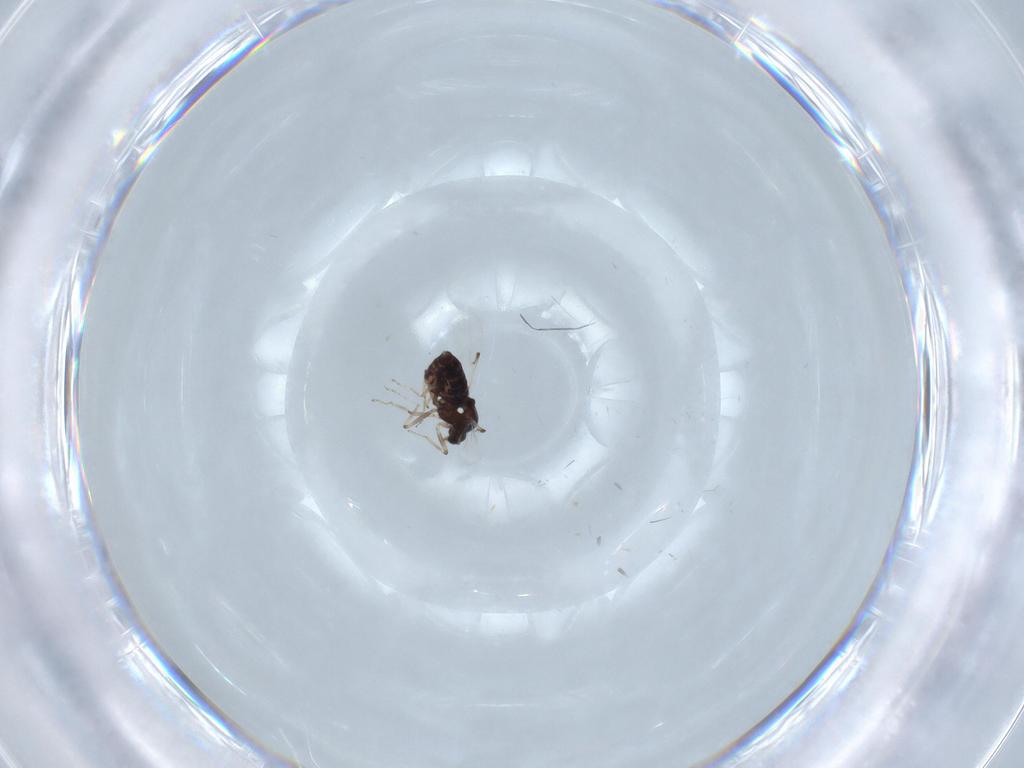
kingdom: Animalia
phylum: Arthropoda
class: Insecta
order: Diptera
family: Ceratopogonidae
